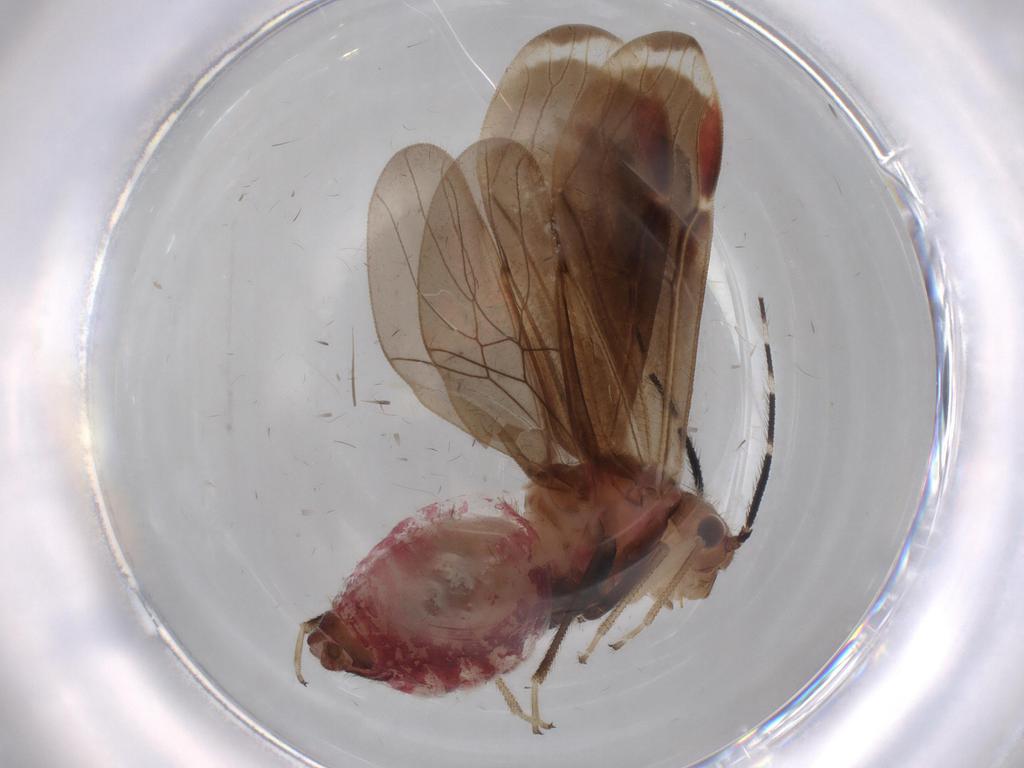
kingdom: Animalia
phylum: Arthropoda
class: Insecta
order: Psocodea
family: Amphipsocidae
